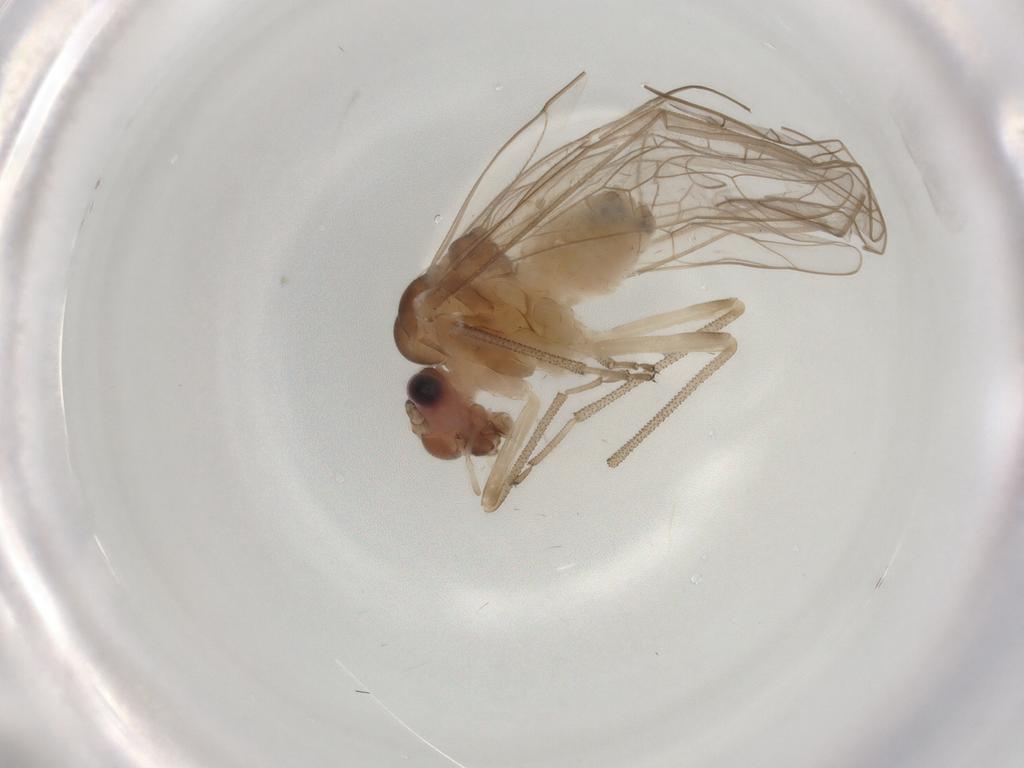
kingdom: Animalia
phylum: Arthropoda
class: Insecta
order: Psocodea
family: Stenopsocidae
